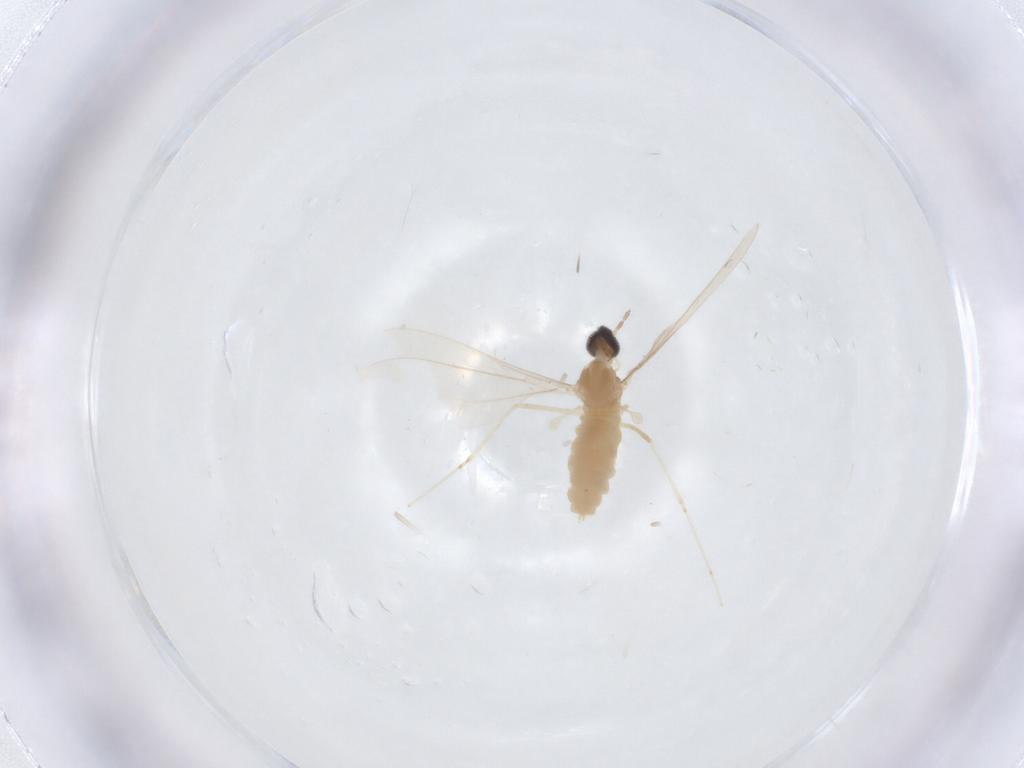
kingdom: Animalia
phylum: Arthropoda
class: Insecta
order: Diptera
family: Cecidomyiidae
